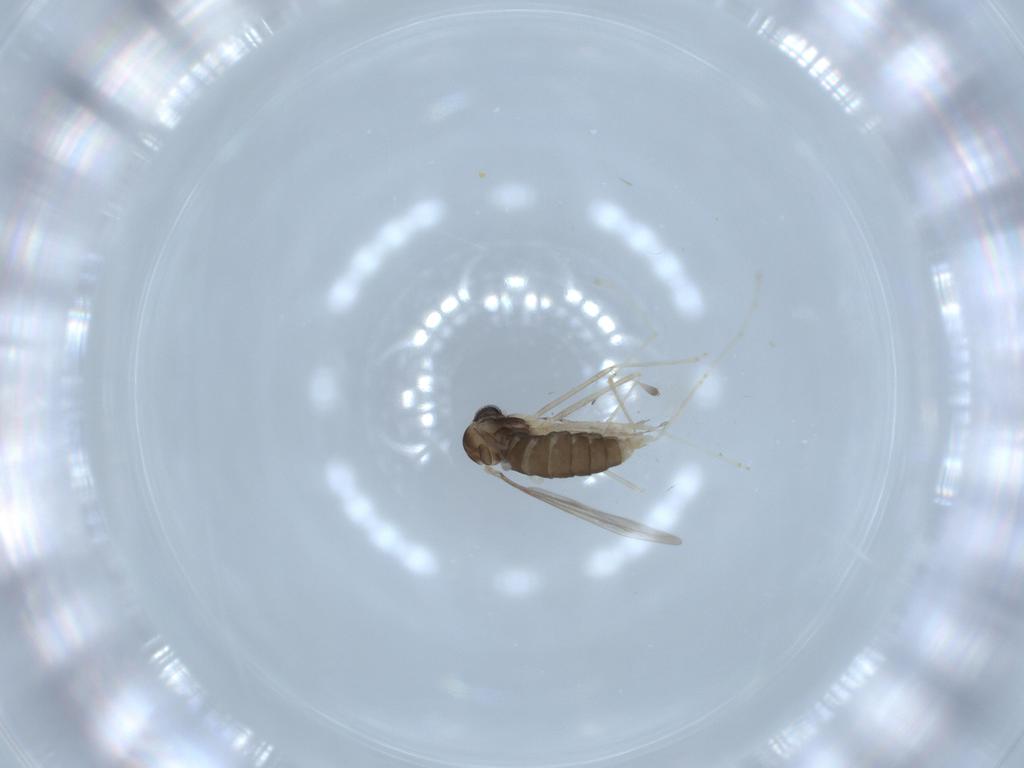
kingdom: Animalia
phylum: Arthropoda
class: Insecta
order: Diptera
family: Cecidomyiidae
